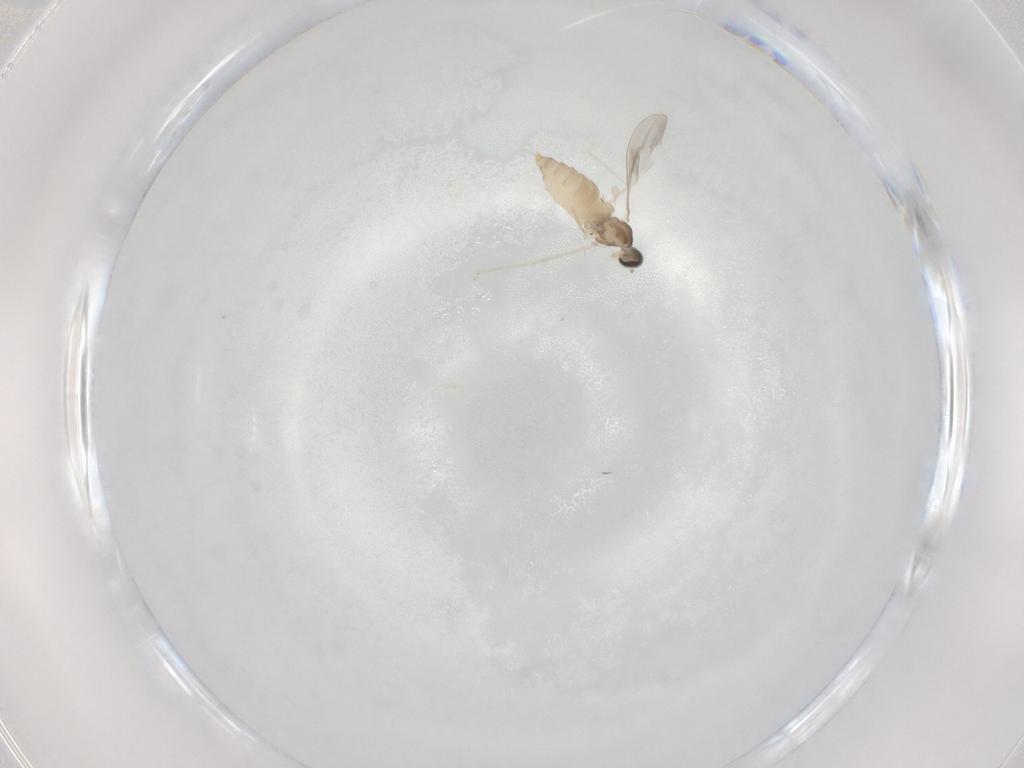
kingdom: Animalia
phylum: Arthropoda
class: Insecta
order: Diptera
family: Cecidomyiidae
